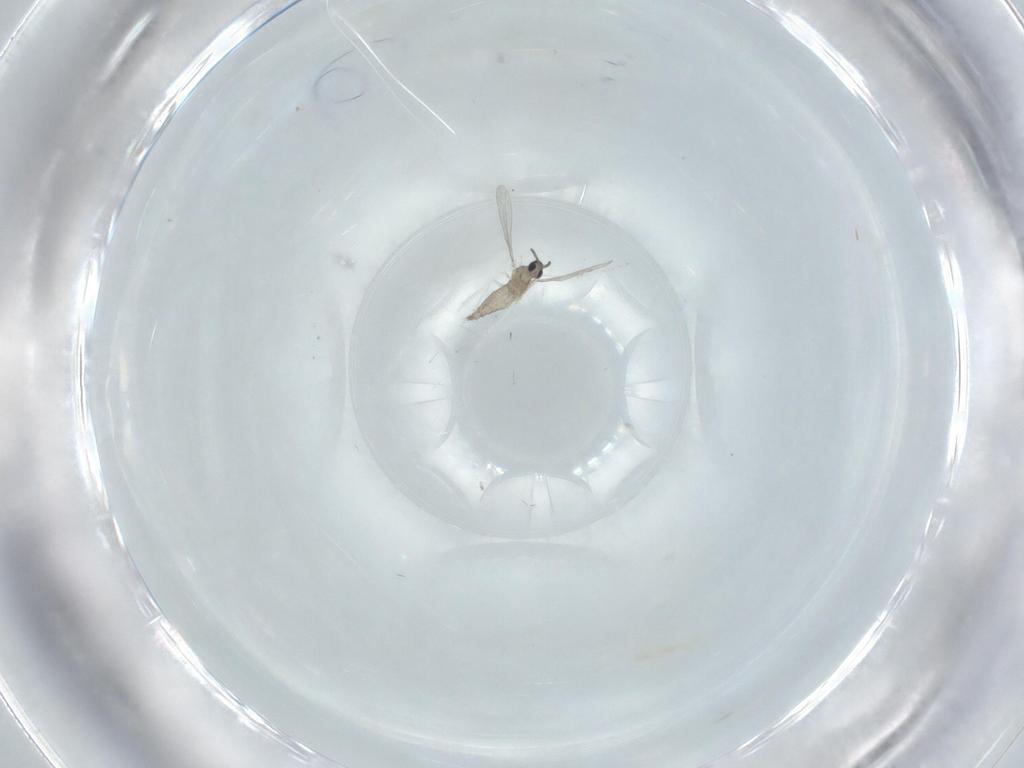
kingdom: Animalia
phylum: Arthropoda
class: Insecta
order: Diptera
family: Cecidomyiidae
